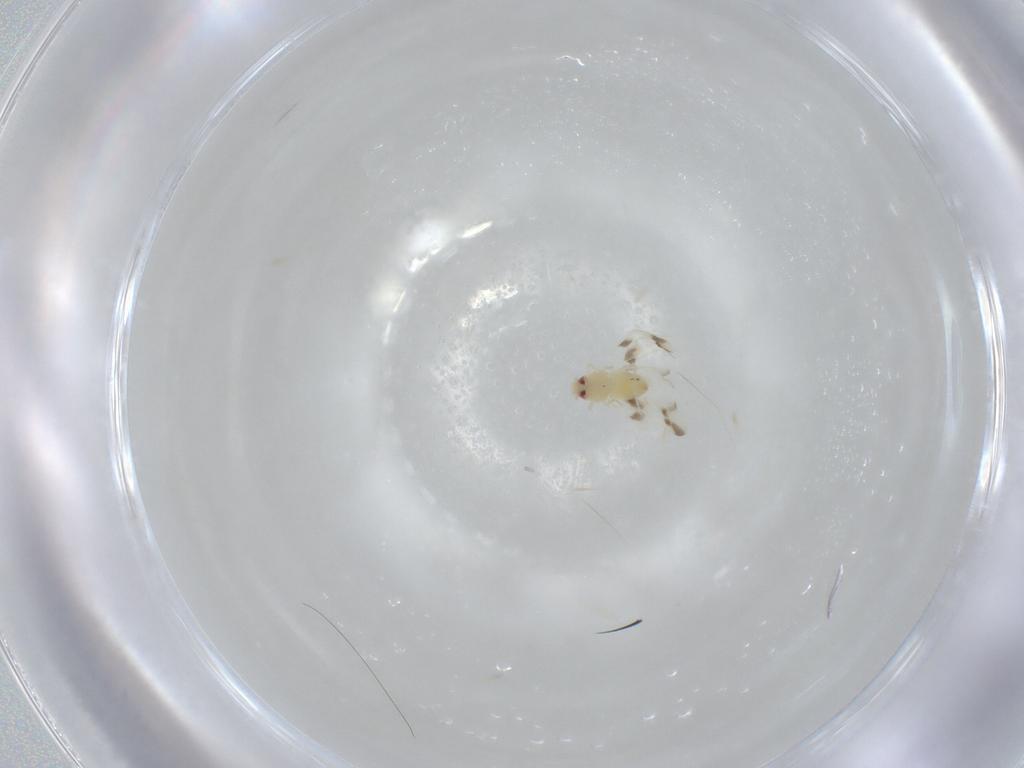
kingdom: Animalia
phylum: Arthropoda
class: Insecta
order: Hemiptera
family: Aleyrodidae
